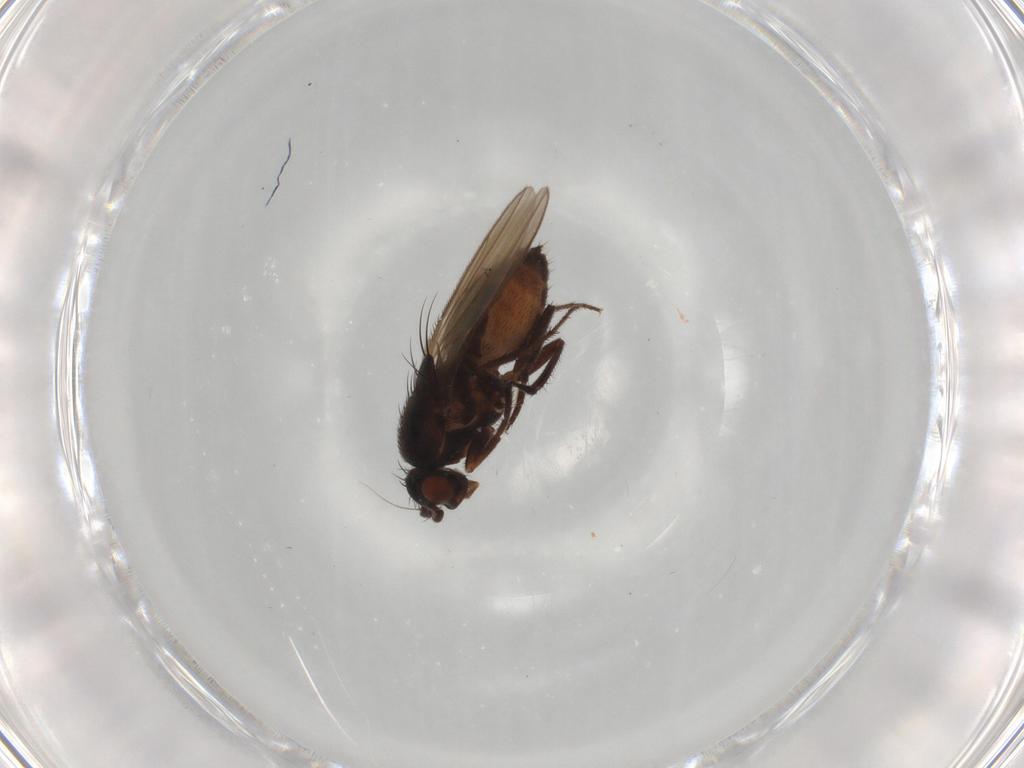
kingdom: Animalia
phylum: Arthropoda
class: Insecta
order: Diptera
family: Sphaeroceridae
